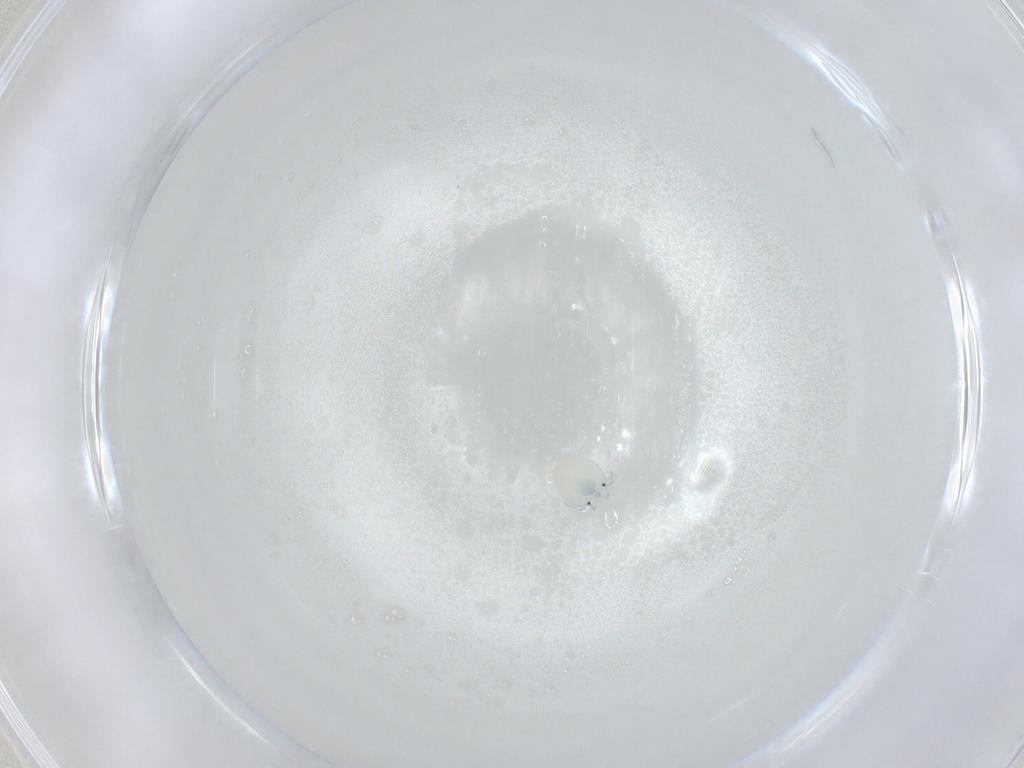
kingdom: Animalia
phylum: Arthropoda
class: Arachnida
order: Trombidiformes
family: Arrenuridae
